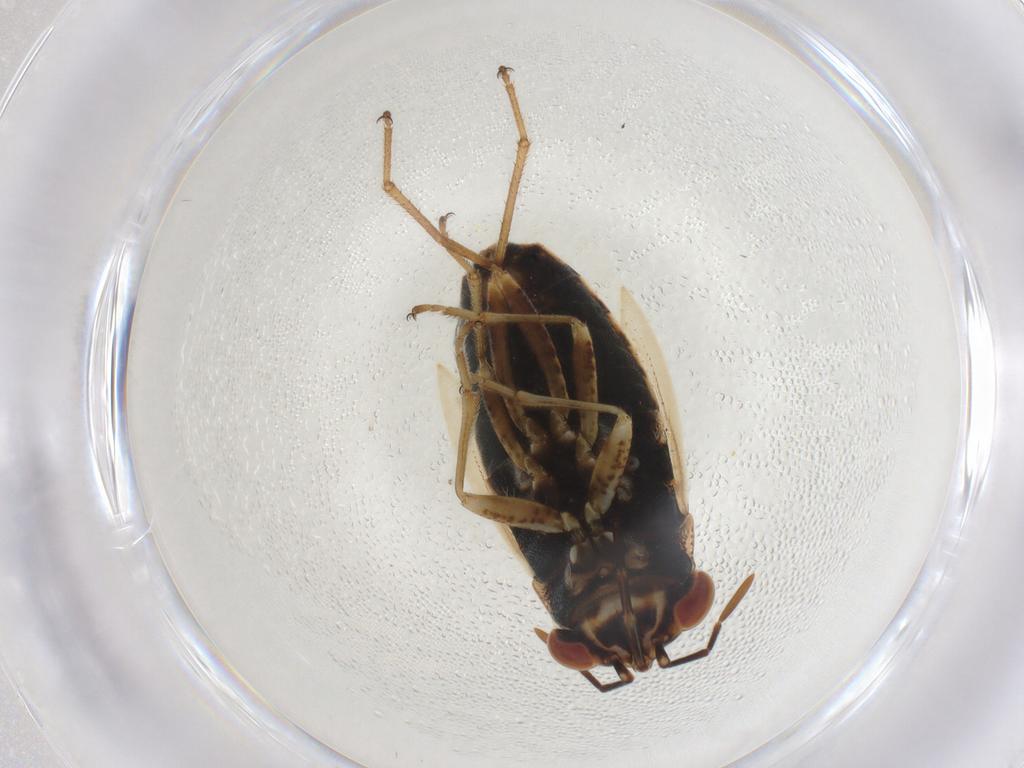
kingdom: Animalia
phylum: Arthropoda
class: Insecta
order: Diptera
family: Tachinidae
